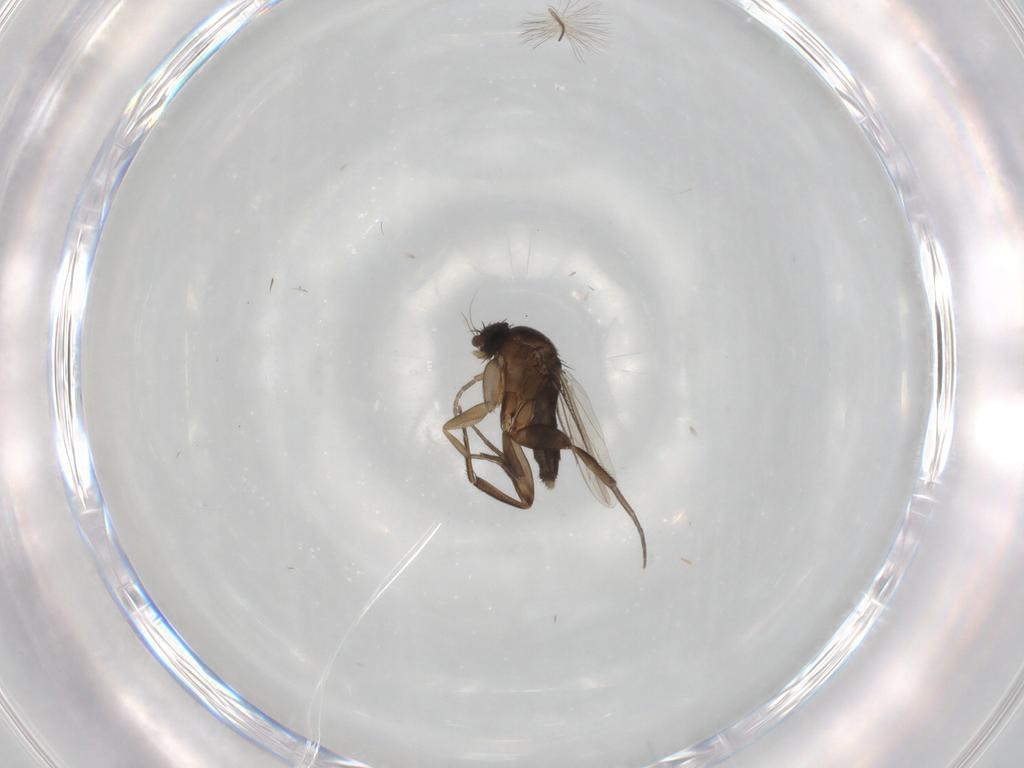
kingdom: Animalia
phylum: Arthropoda
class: Insecta
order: Diptera
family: Phoridae
